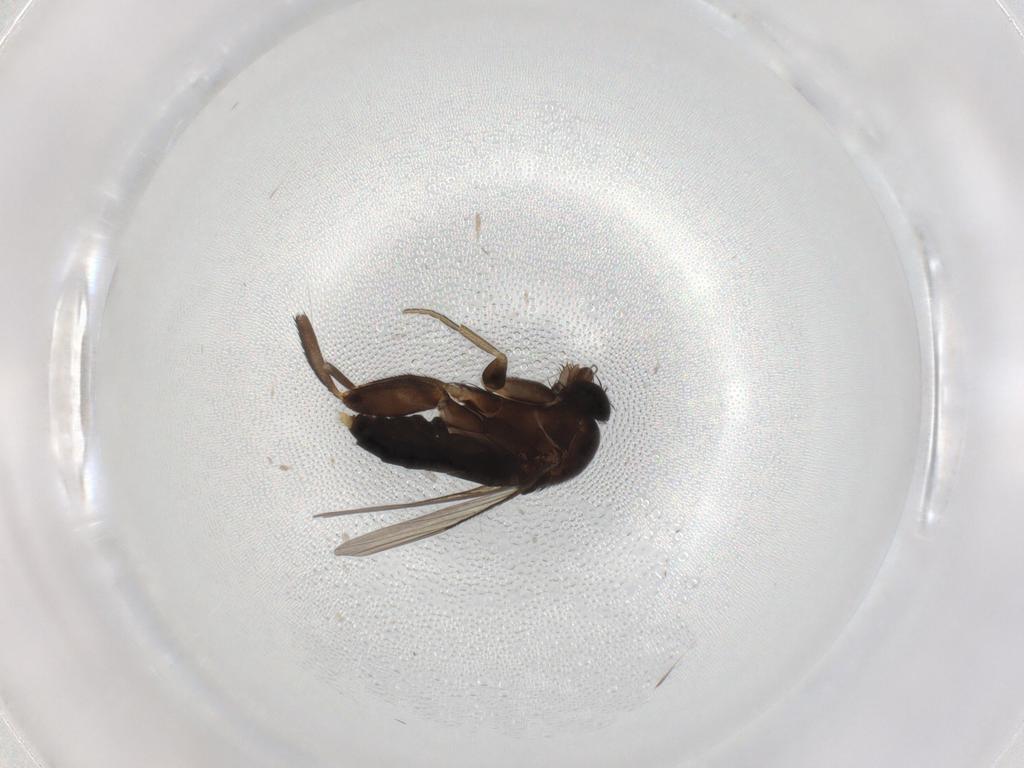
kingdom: Animalia
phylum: Arthropoda
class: Insecta
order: Diptera
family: Phoridae
